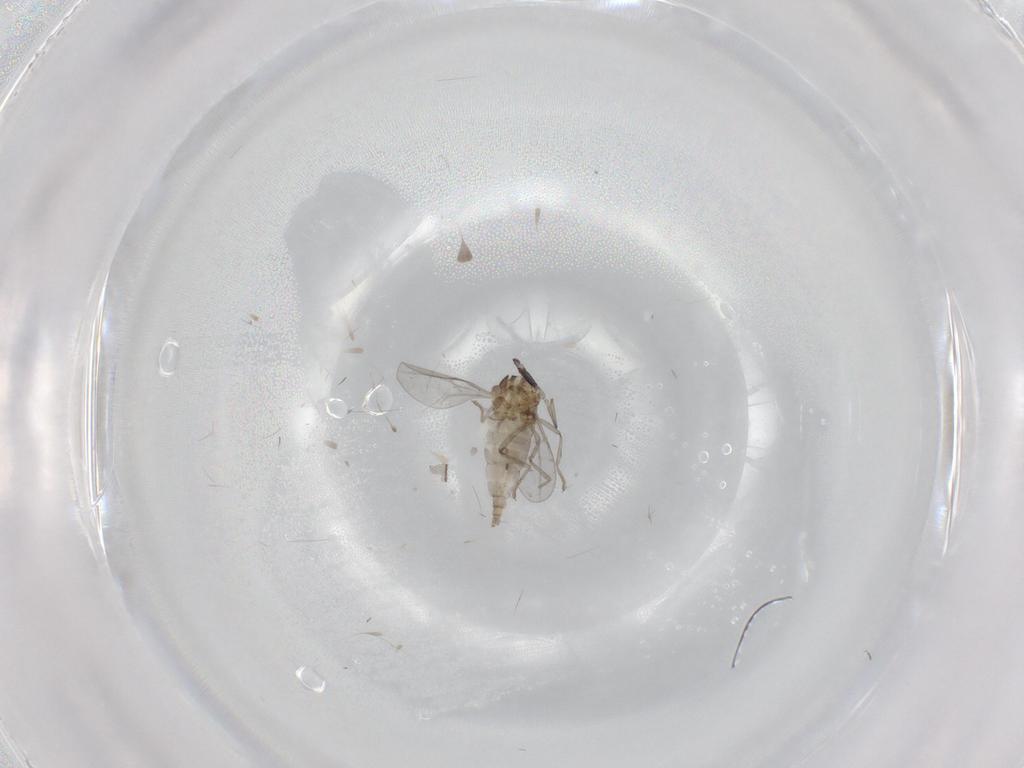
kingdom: Animalia
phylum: Arthropoda
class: Insecta
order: Diptera
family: Cecidomyiidae
